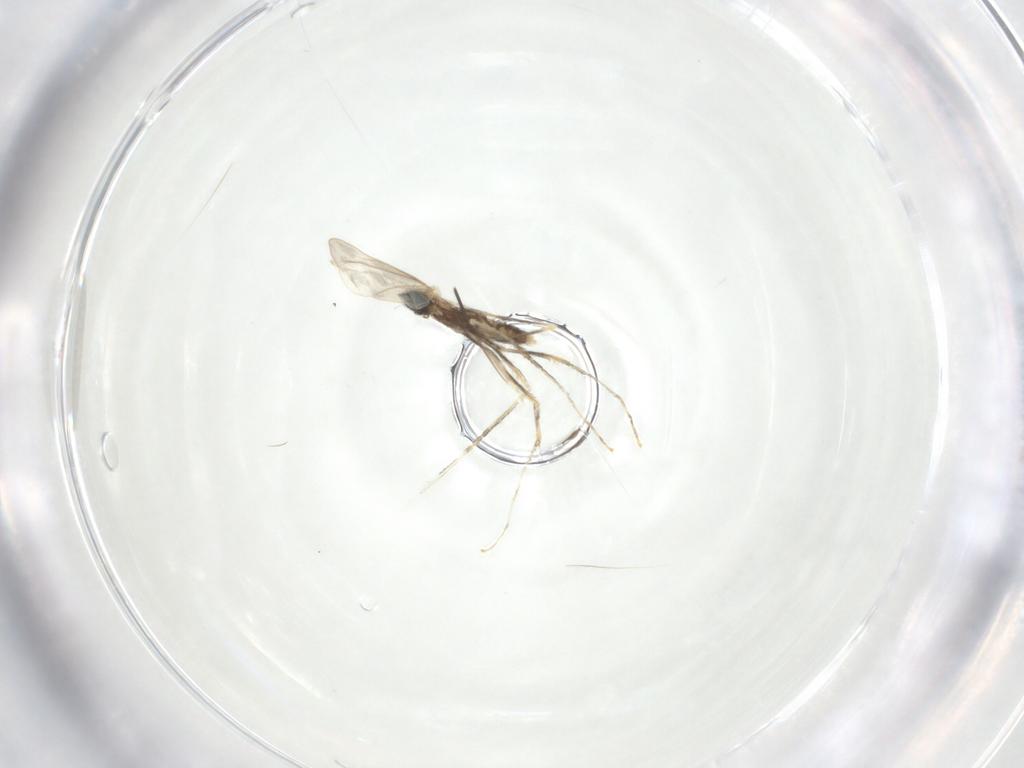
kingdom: Animalia
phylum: Arthropoda
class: Insecta
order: Diptera
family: Cecidomyiidae
